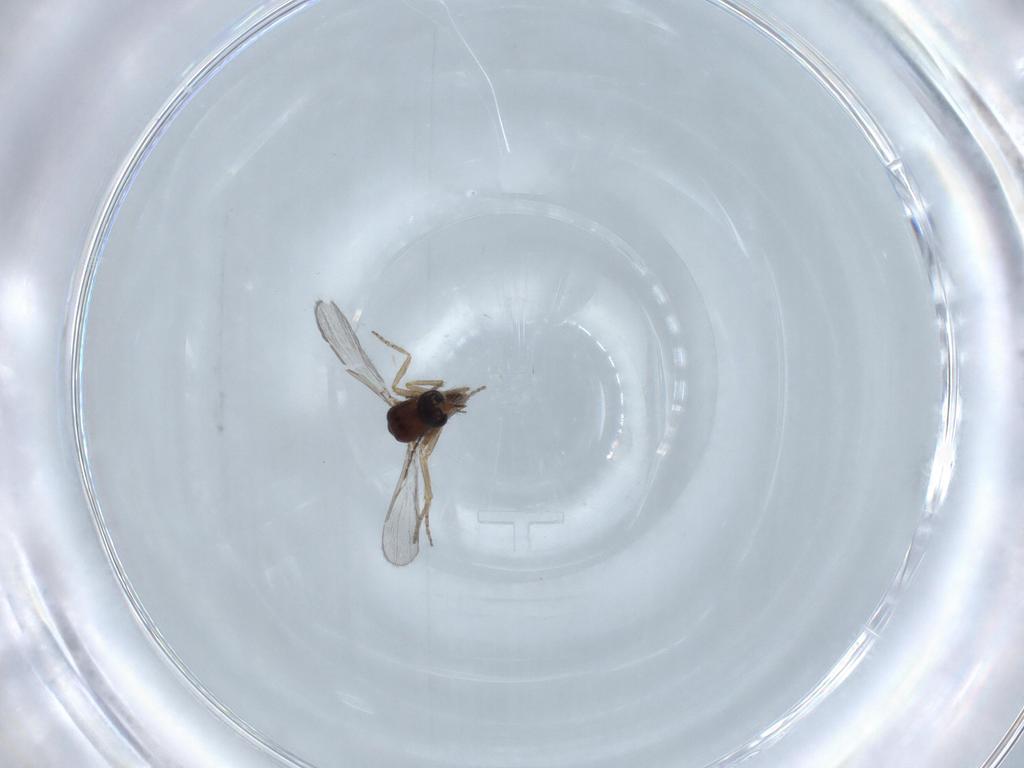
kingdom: Animalia
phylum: Arthropoda
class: Insecta
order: Diptera
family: Ceratopogonidae
